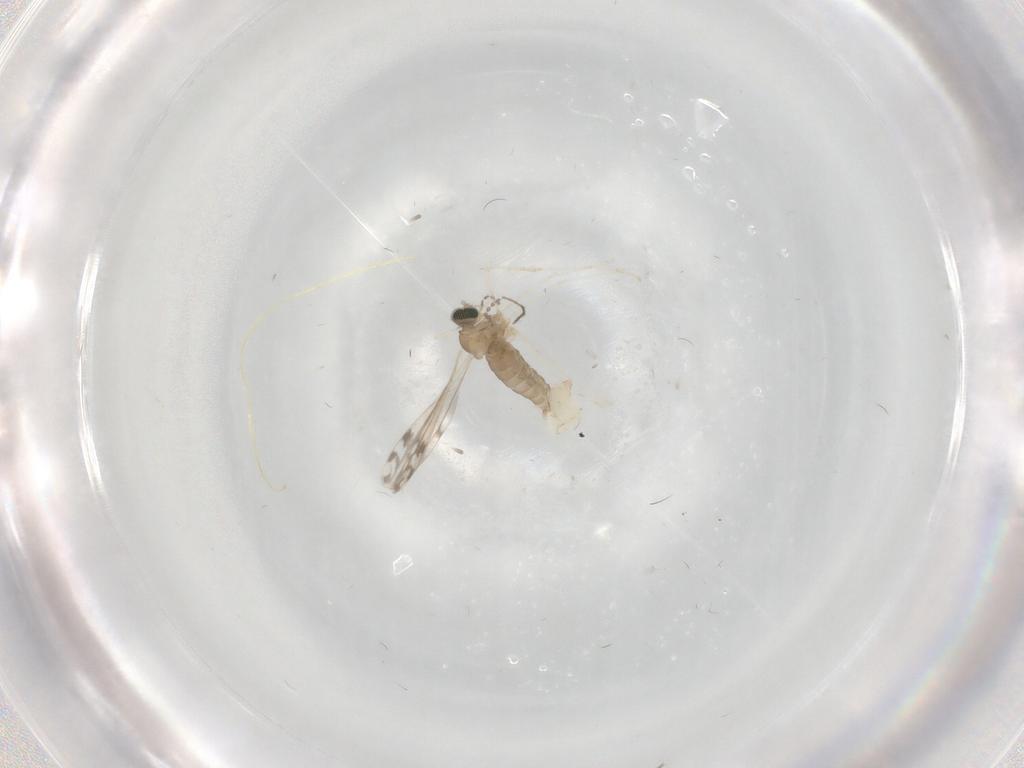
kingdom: Animalia
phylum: Arthropoda
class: Insecta
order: Diptera
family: Cecidomyiidae
